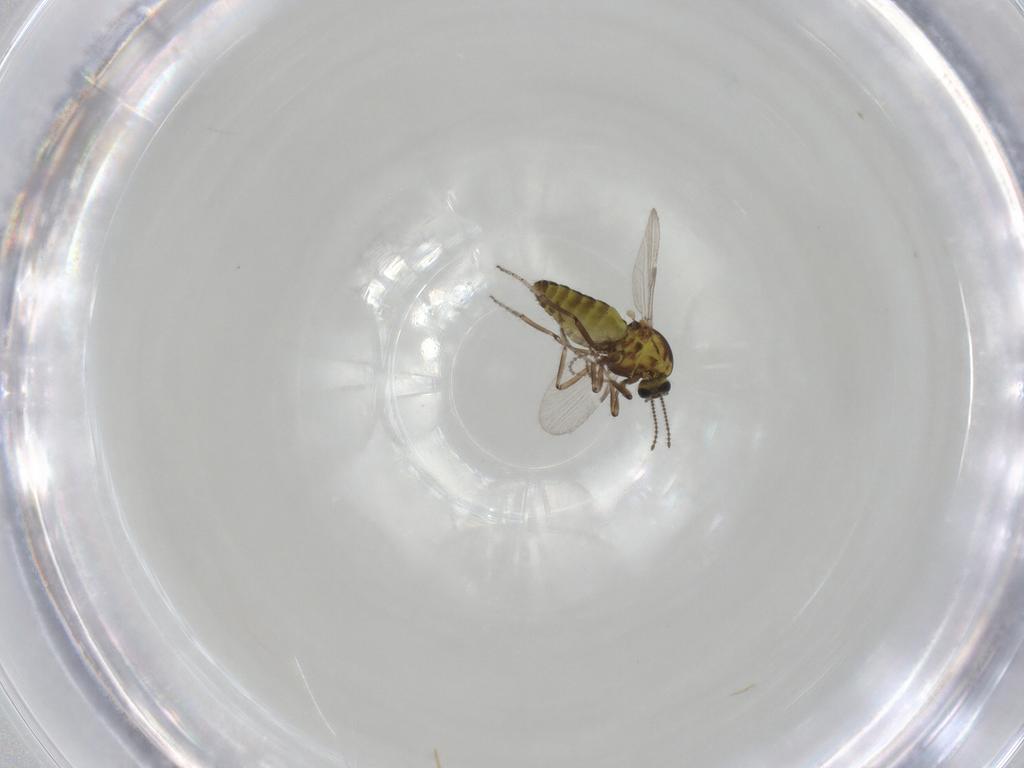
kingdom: Animalia
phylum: Arthropoda
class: Insecta
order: Diptera
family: Ceratopogonidae
